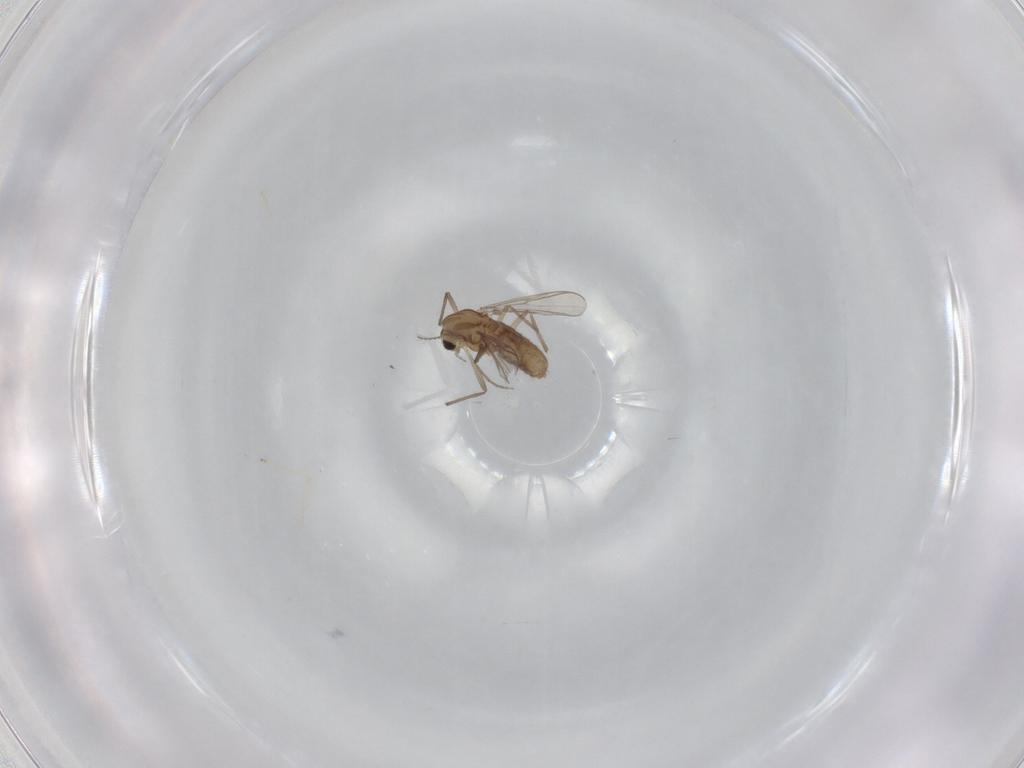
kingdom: Animalia
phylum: Arthropoda
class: Insecta
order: Diptera
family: Chironomidae
